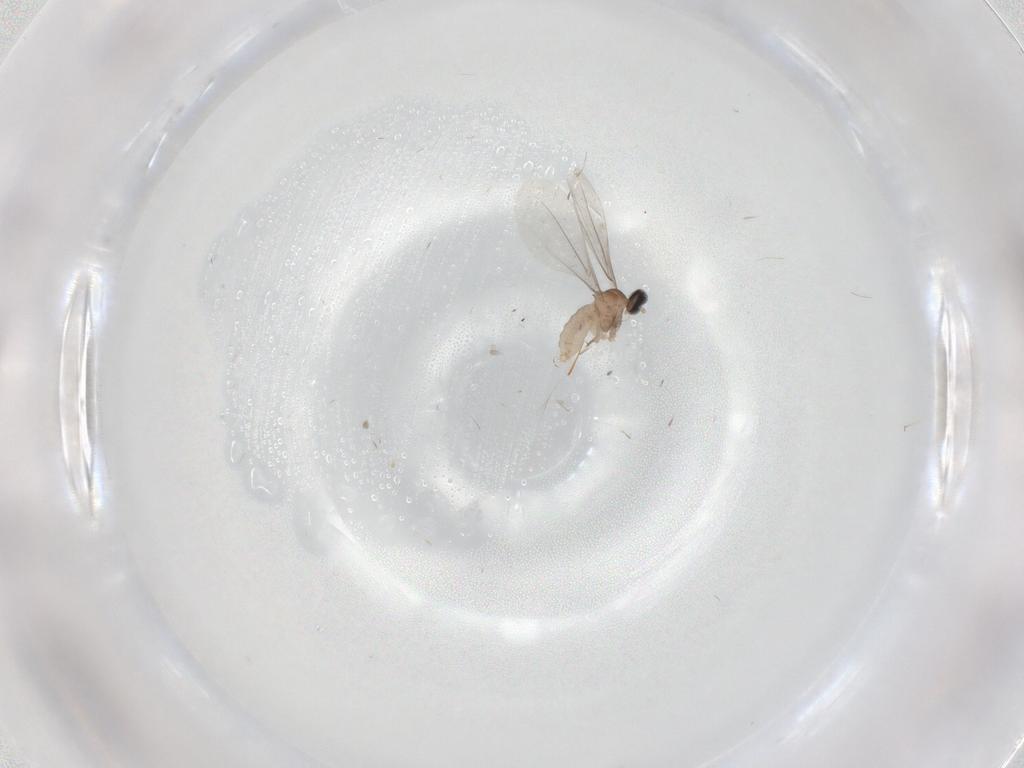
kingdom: Animalia
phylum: Arthropoda
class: Insecta
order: Diptera
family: Cecidomyiidae
